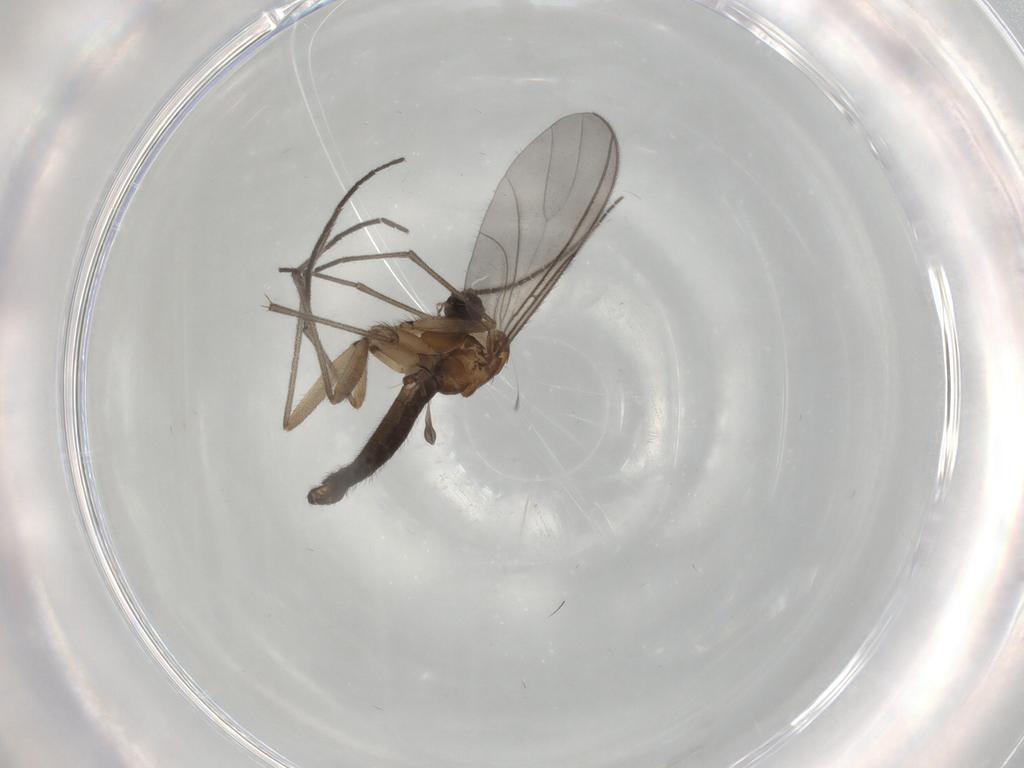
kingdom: Animalia
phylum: Arthropoda
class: Insecta
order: Diptera
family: Sciaridae
